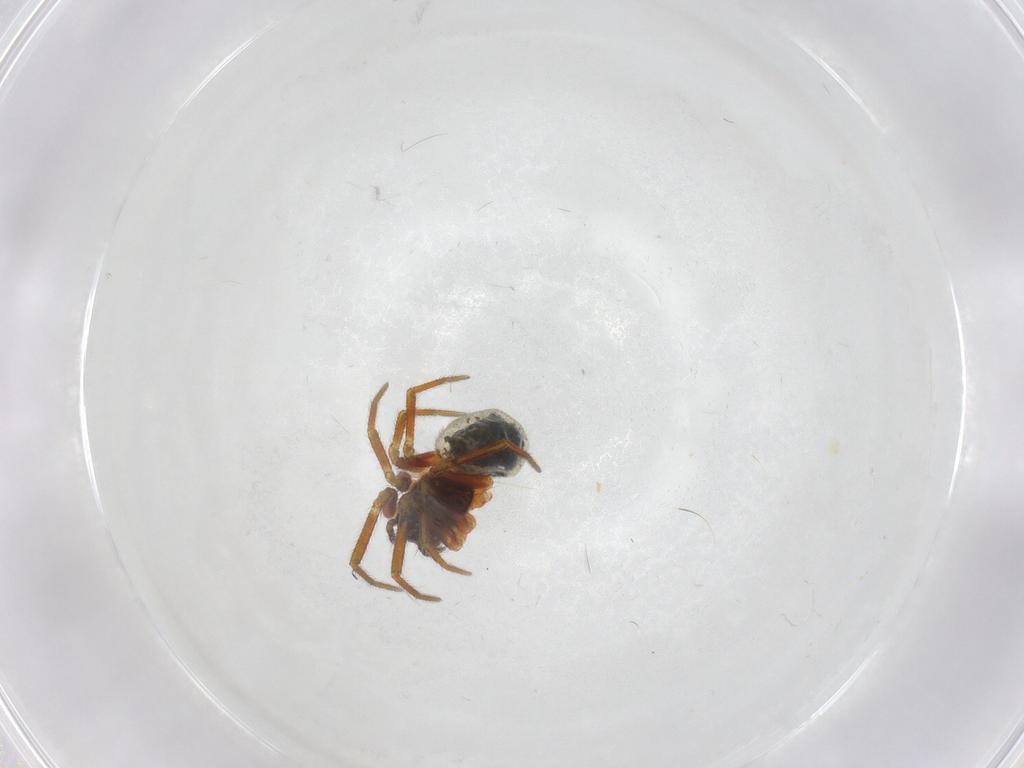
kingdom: Animalia
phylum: Arthropoda
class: Arachnida
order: Araneae
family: Linyphiidae
